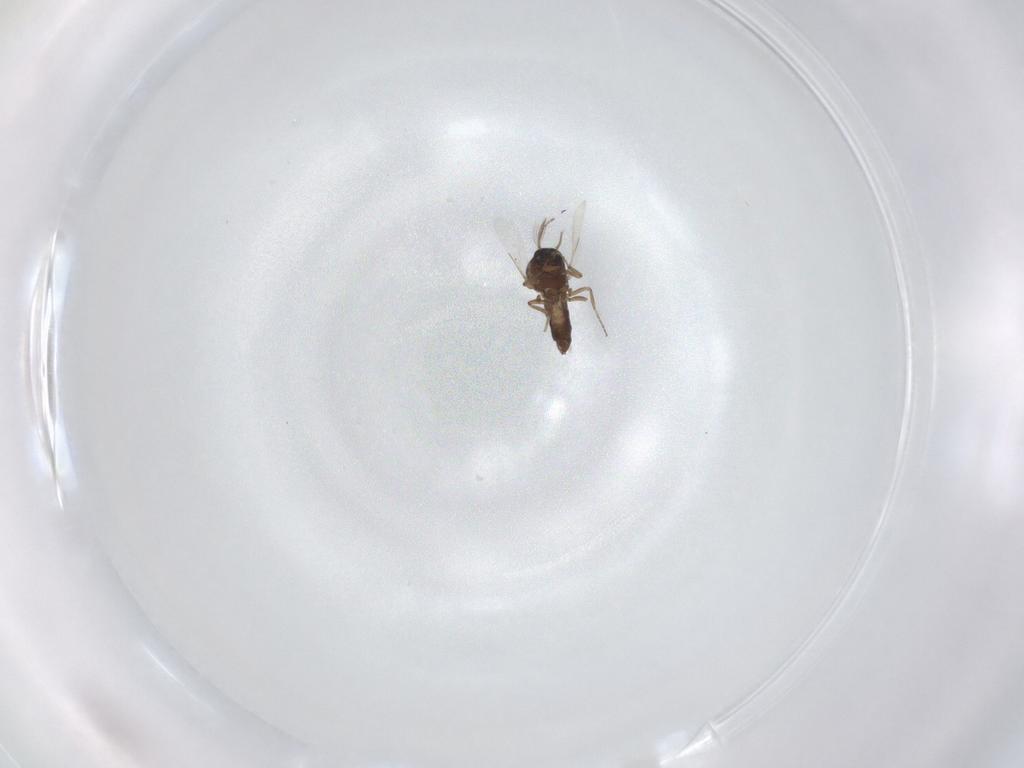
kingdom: Animalia
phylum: Arthropoda
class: Insecta
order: Diptera
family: Ceratopogonidae
